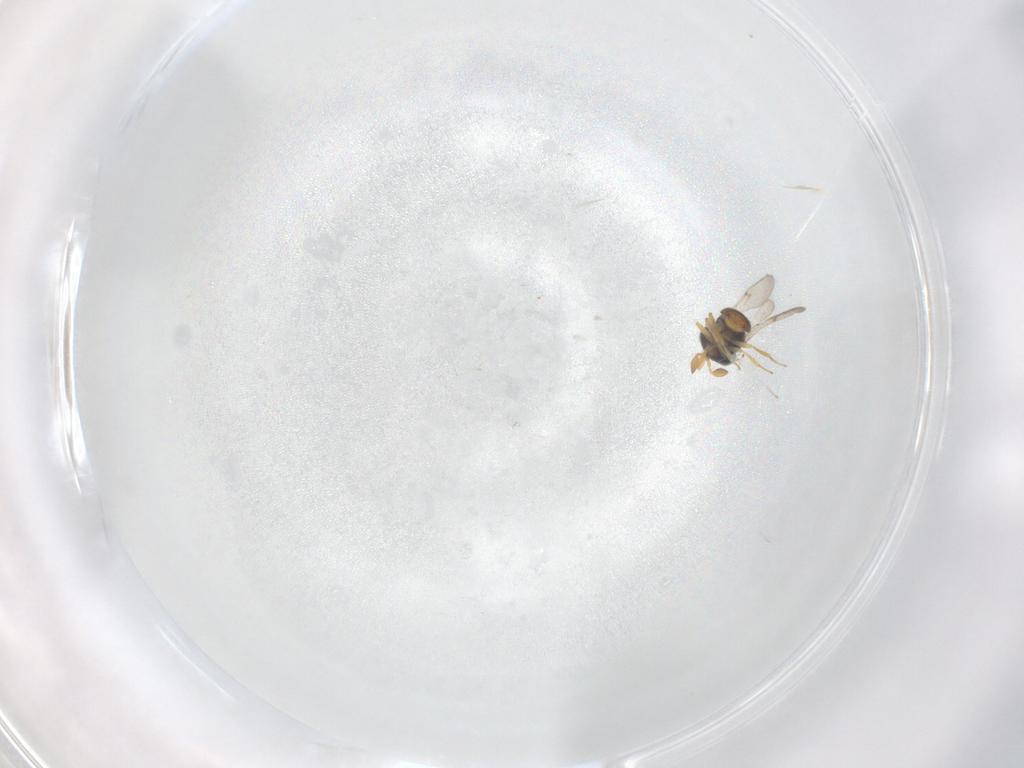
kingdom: Animalia
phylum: Arthropoda
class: Insecta
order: Hymenoptera
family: Scelionidae
